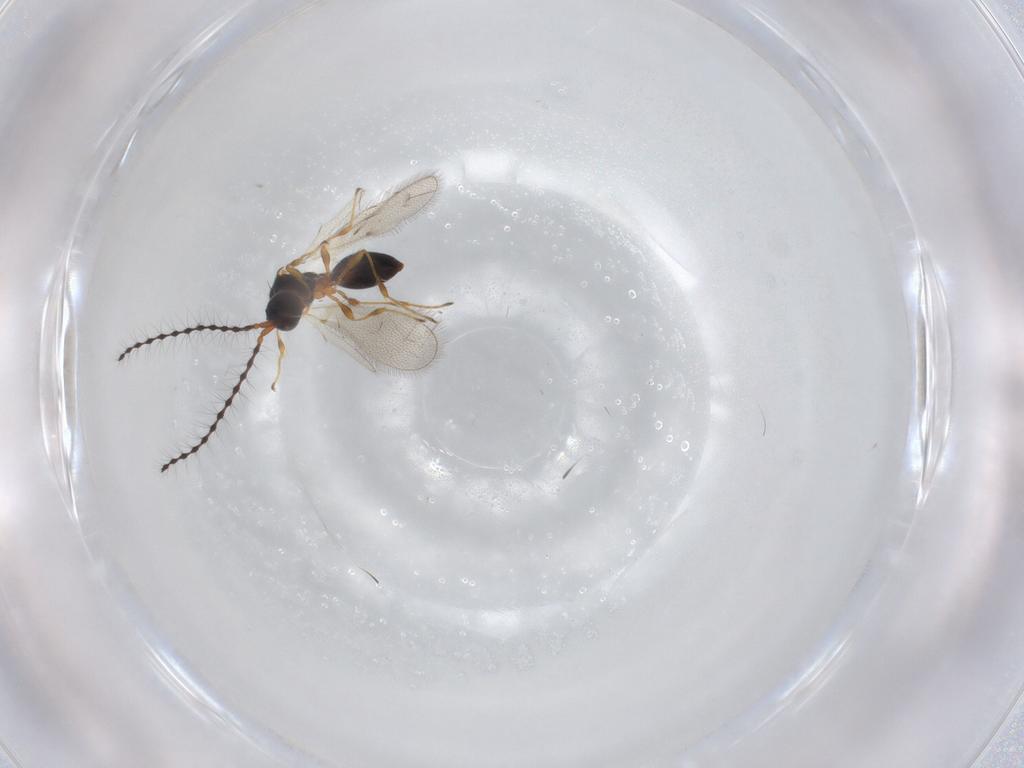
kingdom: Animalia
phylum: Arthropoda
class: Insecta
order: Hymenoptera
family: Diapriidae
